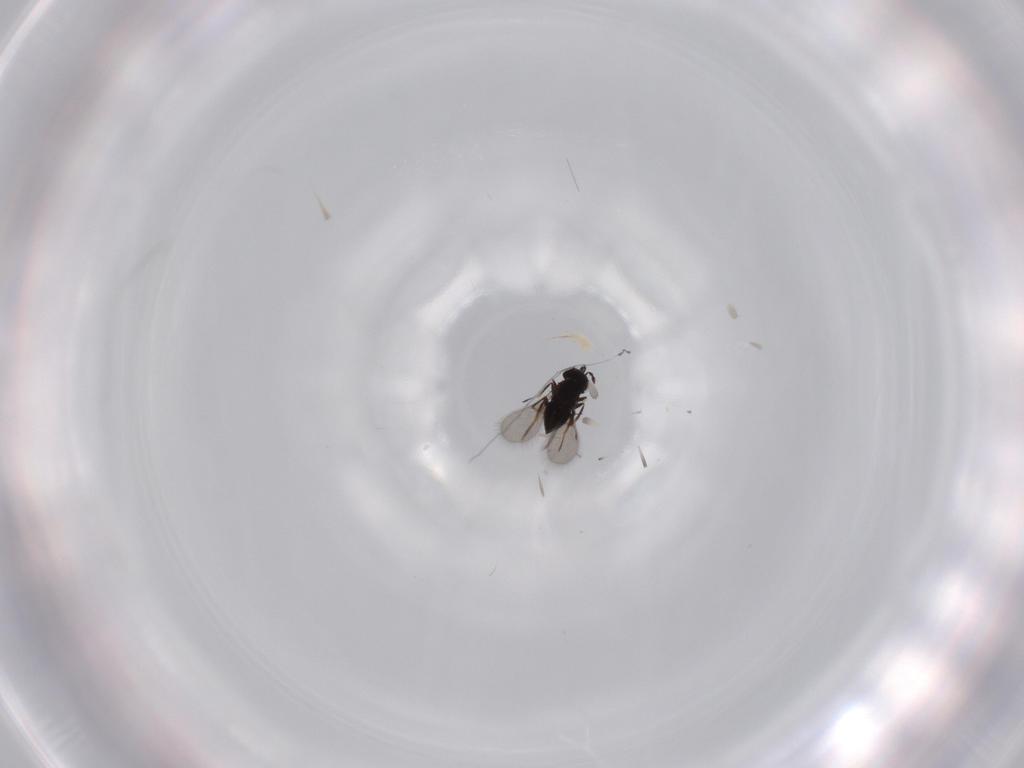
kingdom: Animalia
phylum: Arthropoda
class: Insecta
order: Hymenoptera
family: Trichogrammatidae
